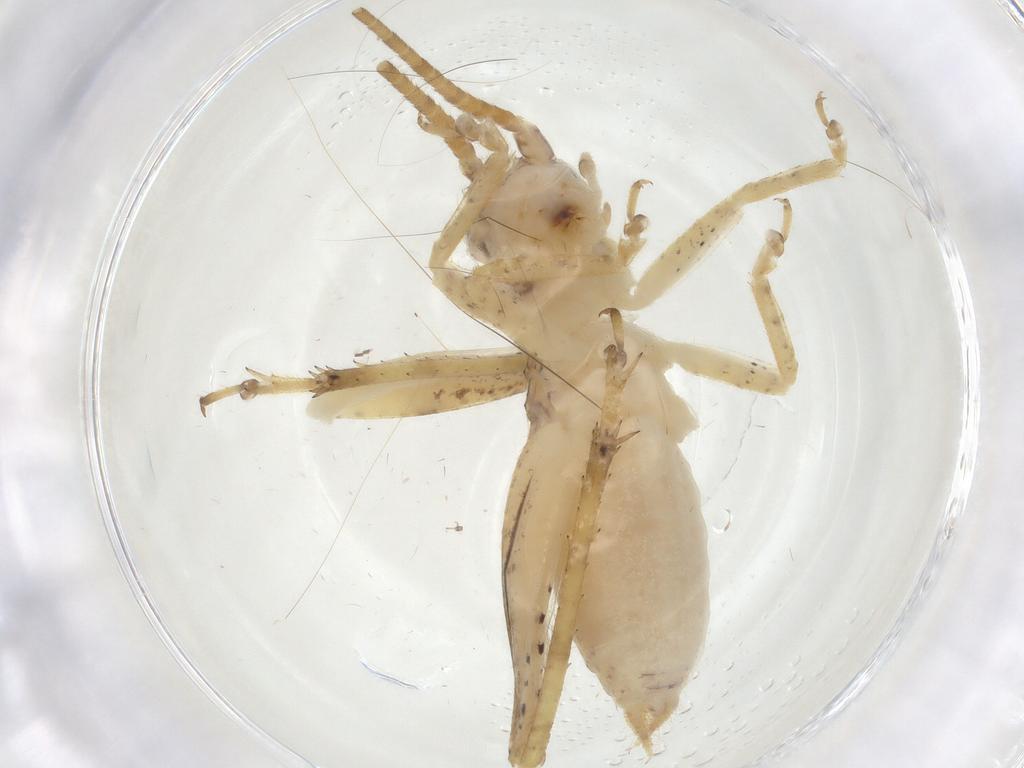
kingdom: Animalia
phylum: Arthropoda
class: Insecta
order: Orthoptera
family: Gryllidae
